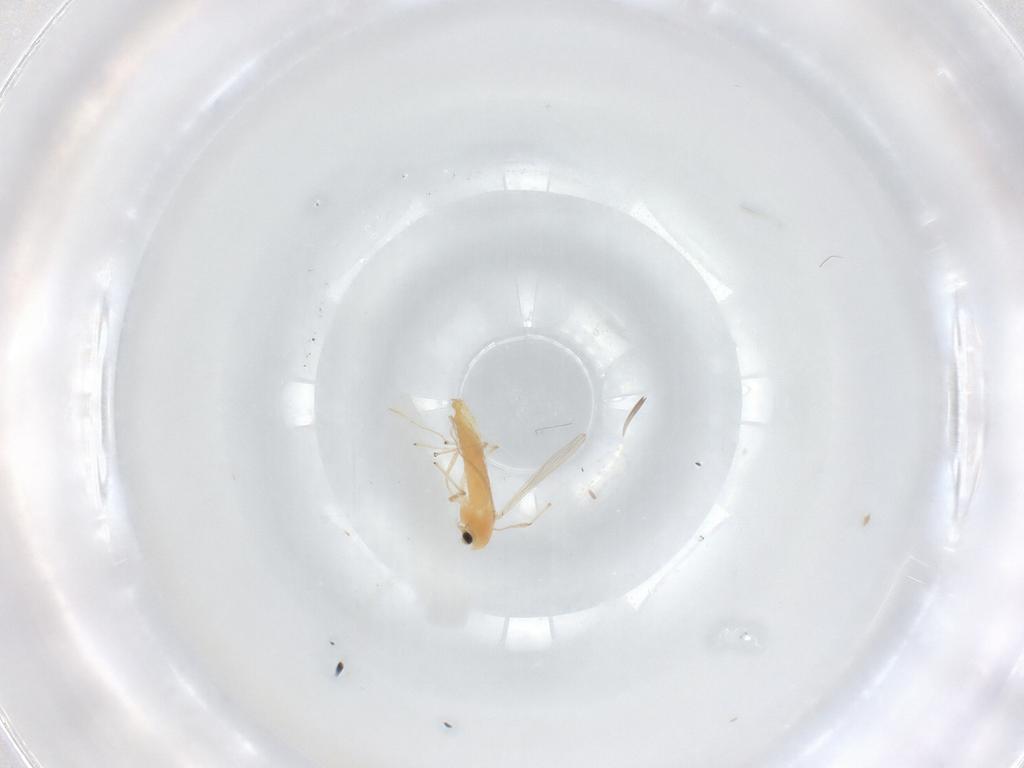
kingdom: Animalia
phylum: Arthropoda
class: Insecta
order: Diptera
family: Chironomidae
